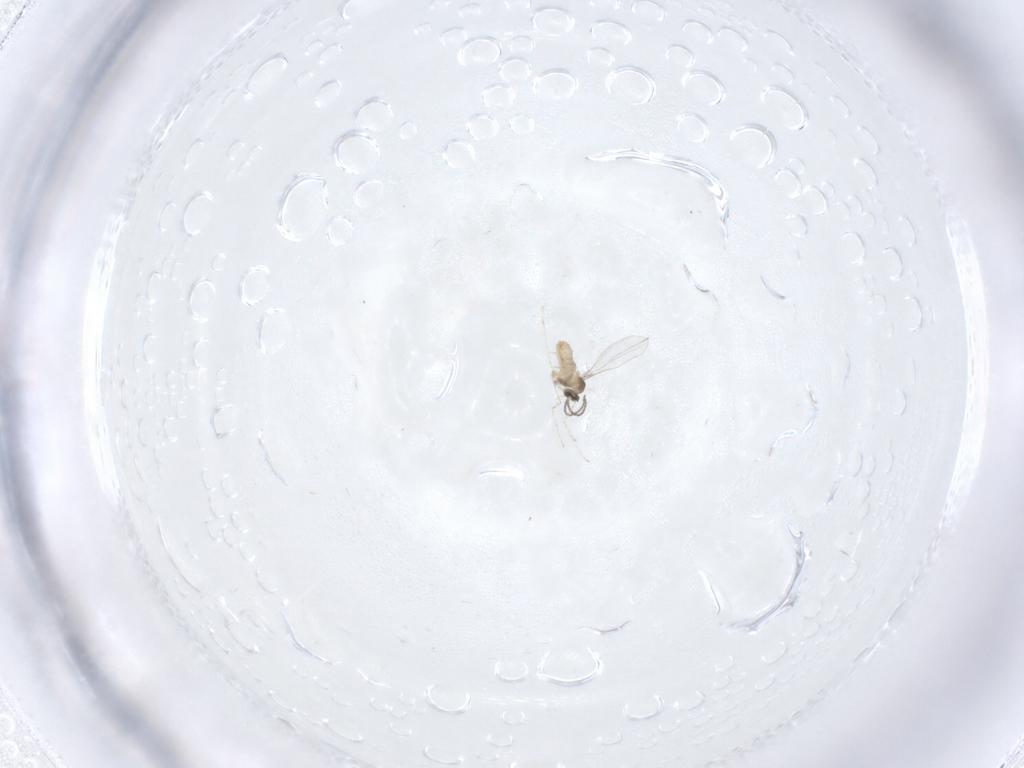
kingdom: Animalia
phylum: Arthropoda
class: Insecta
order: Diptera
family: Cecidomyiidae
